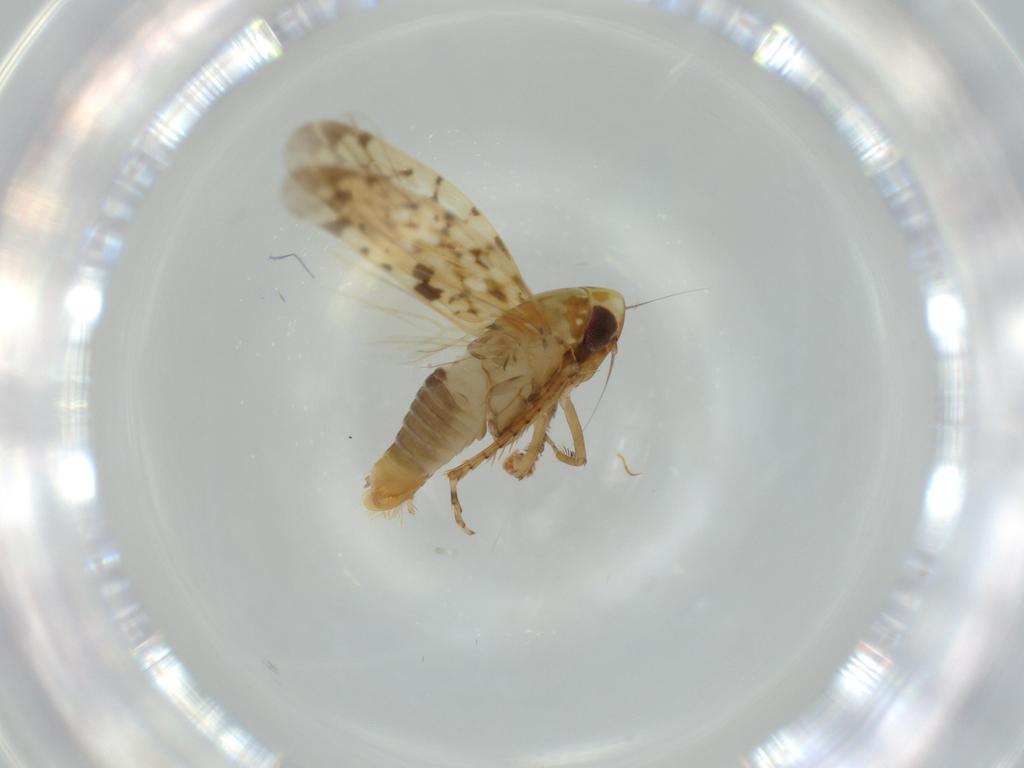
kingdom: Animalia
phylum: Arthropoda
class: Insecta
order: Hemiptera
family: Cicadellidae
